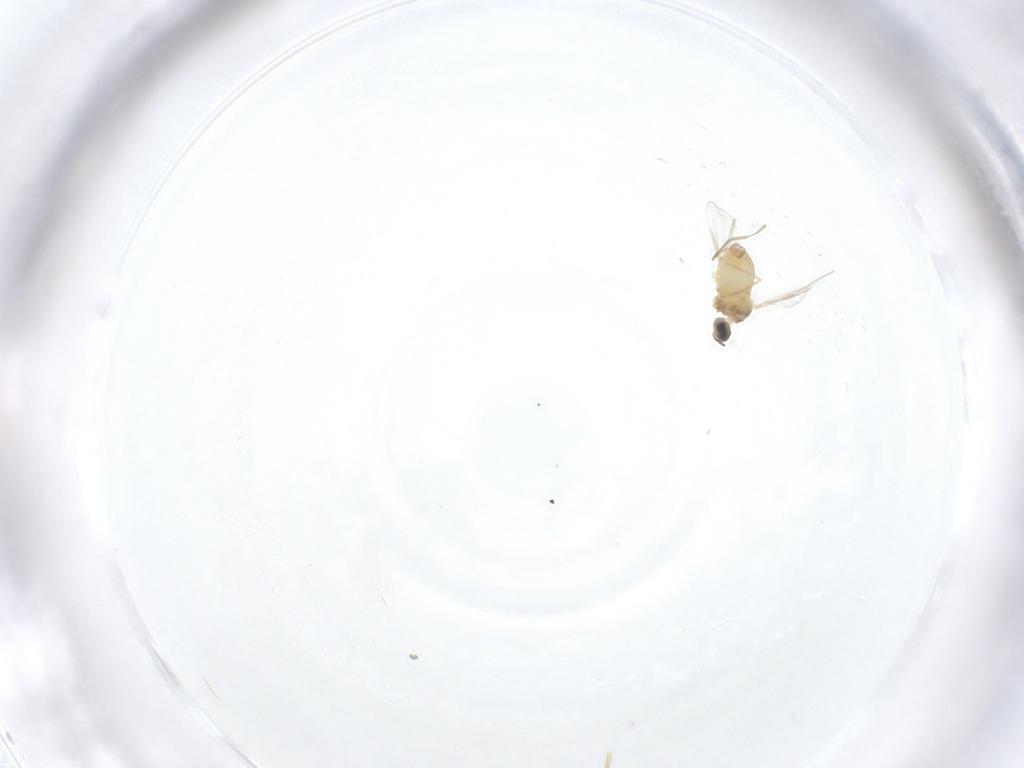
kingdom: Animalia
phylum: Arthropoda
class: Insecta
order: Diptera
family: Cecidomyiidae
